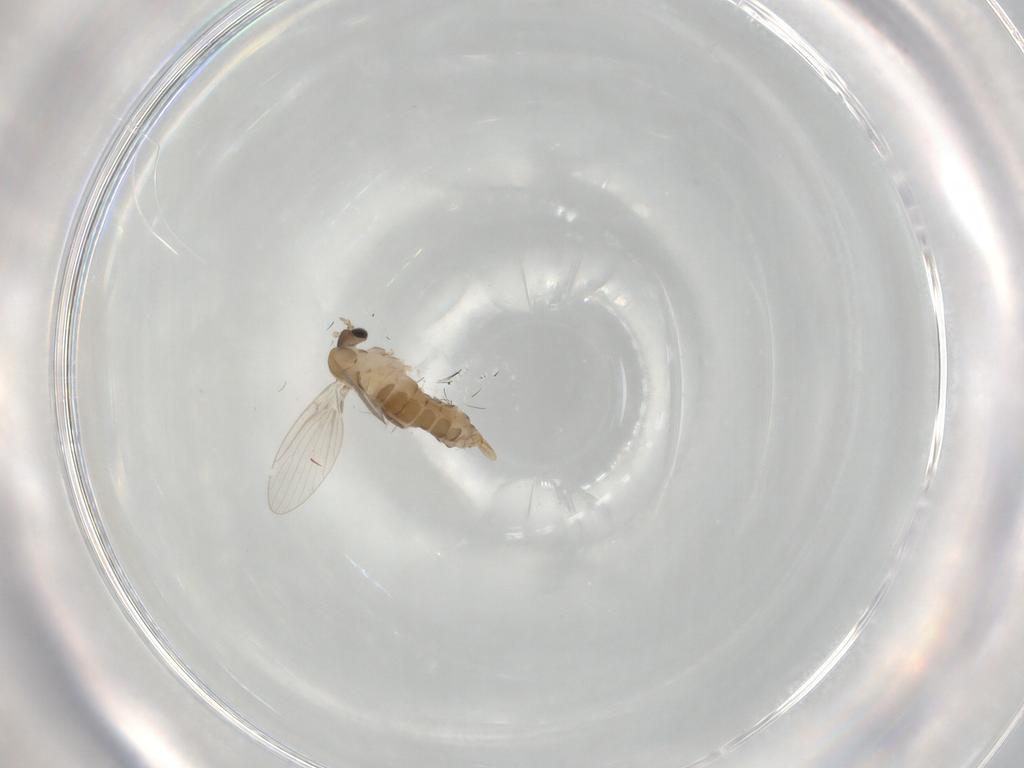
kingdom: Animalia
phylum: Arthropoda
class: Insecta
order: Diptera
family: Psychodidae
